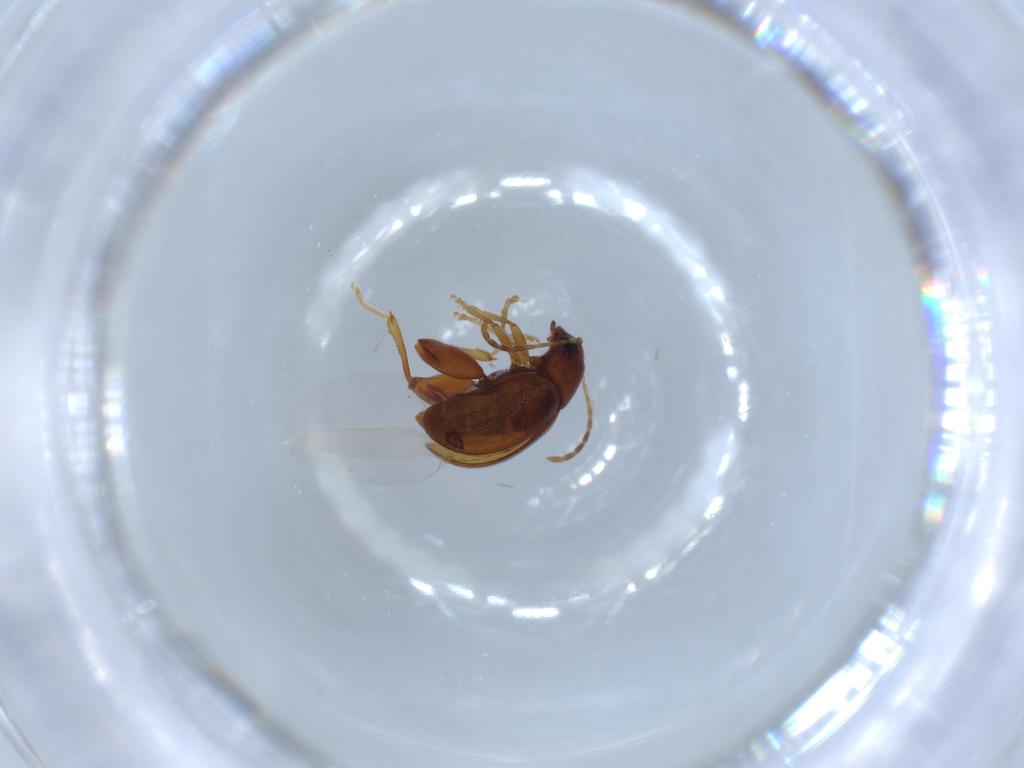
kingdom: Animalia
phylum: Arthropoda
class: Insecta
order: Coleoptera
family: Chrysomelidae
